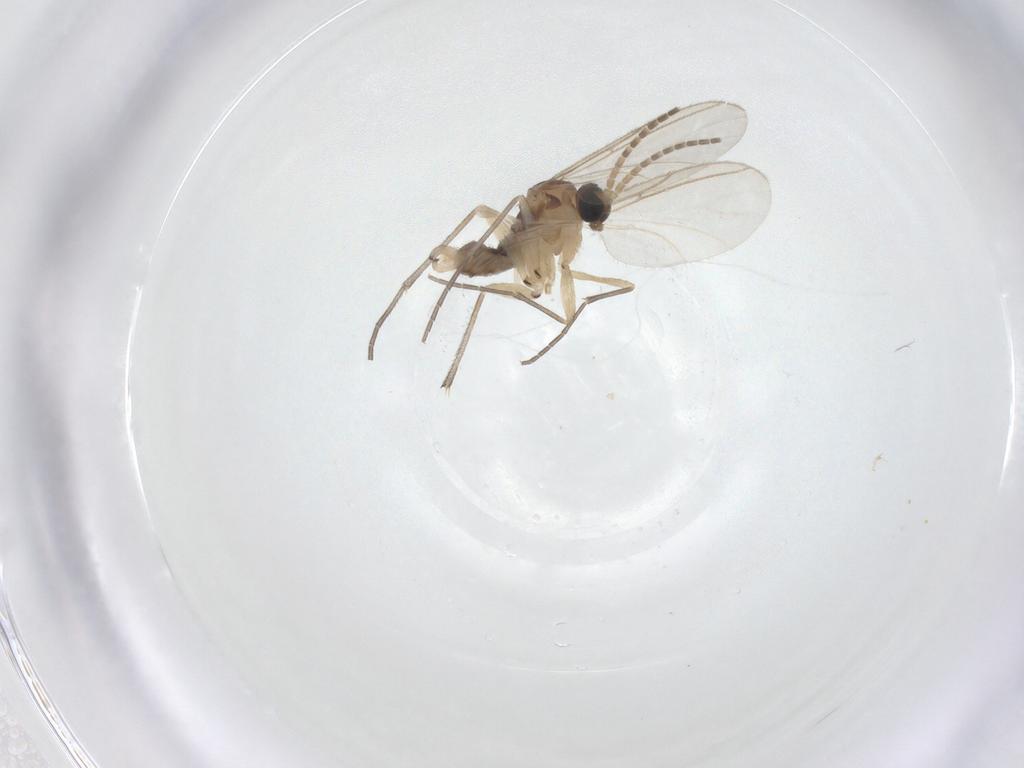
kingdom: Animalia
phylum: Arthropoda
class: Insecta
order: Diptera
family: Sciaridae
